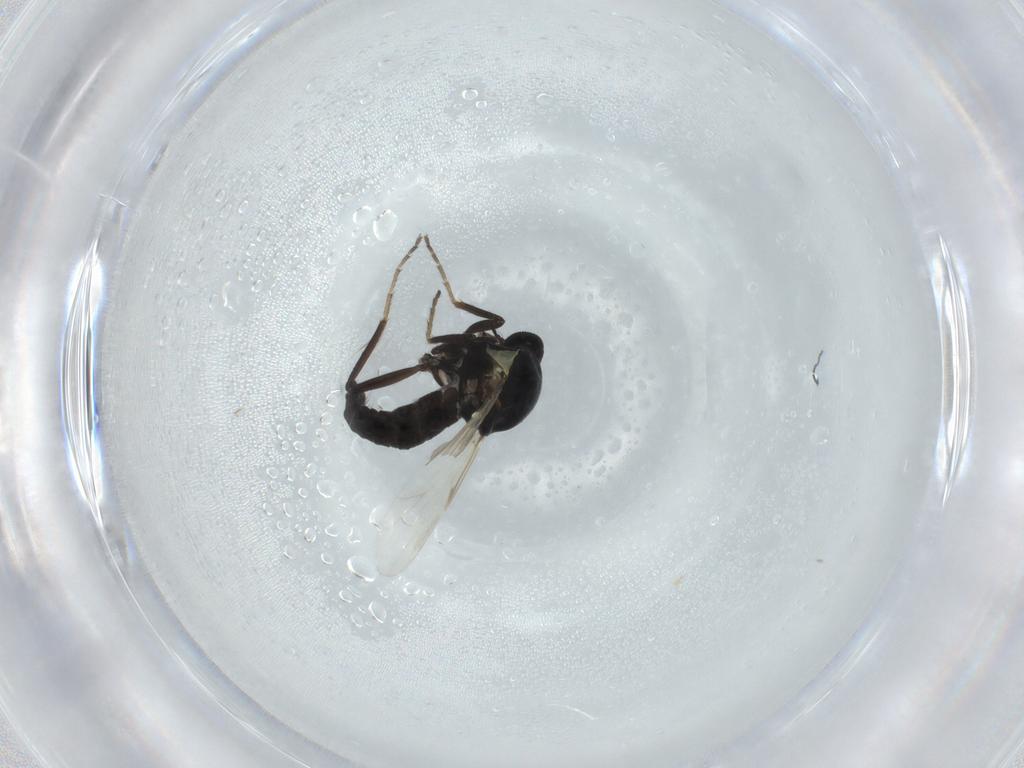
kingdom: Animalia
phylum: Arthropoda
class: Insecta
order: Diptera
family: Ceratopogonidae
